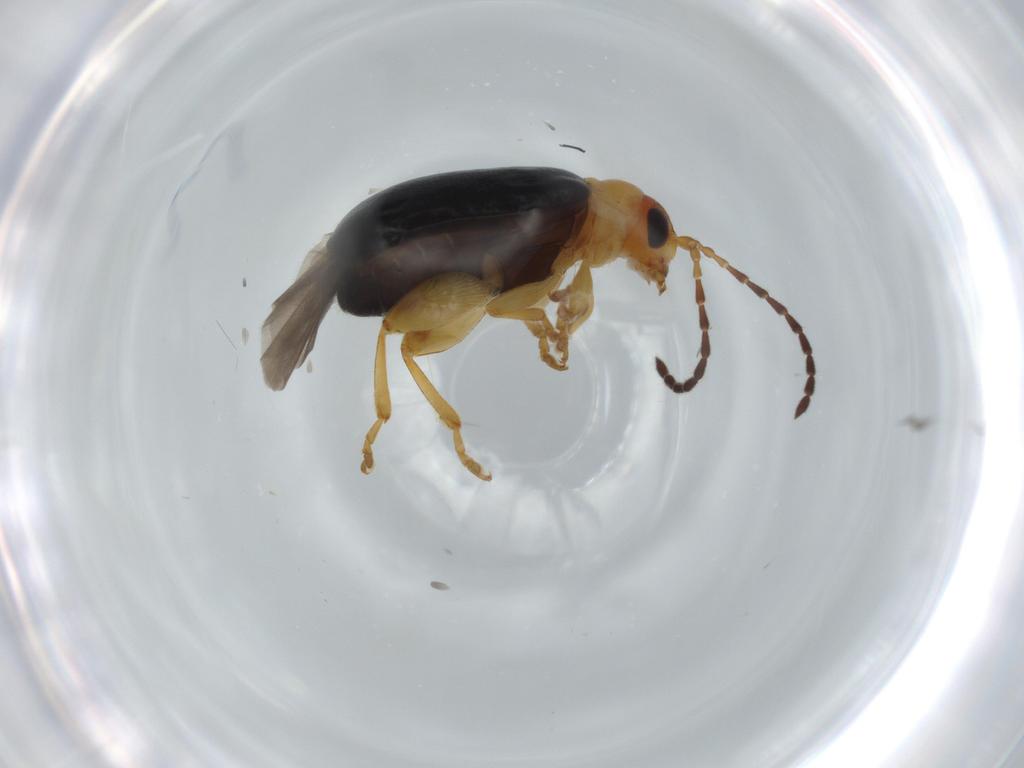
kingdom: Animalia
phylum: Arthropoda
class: Insecta
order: Coleoptera
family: Chrysomelidae
